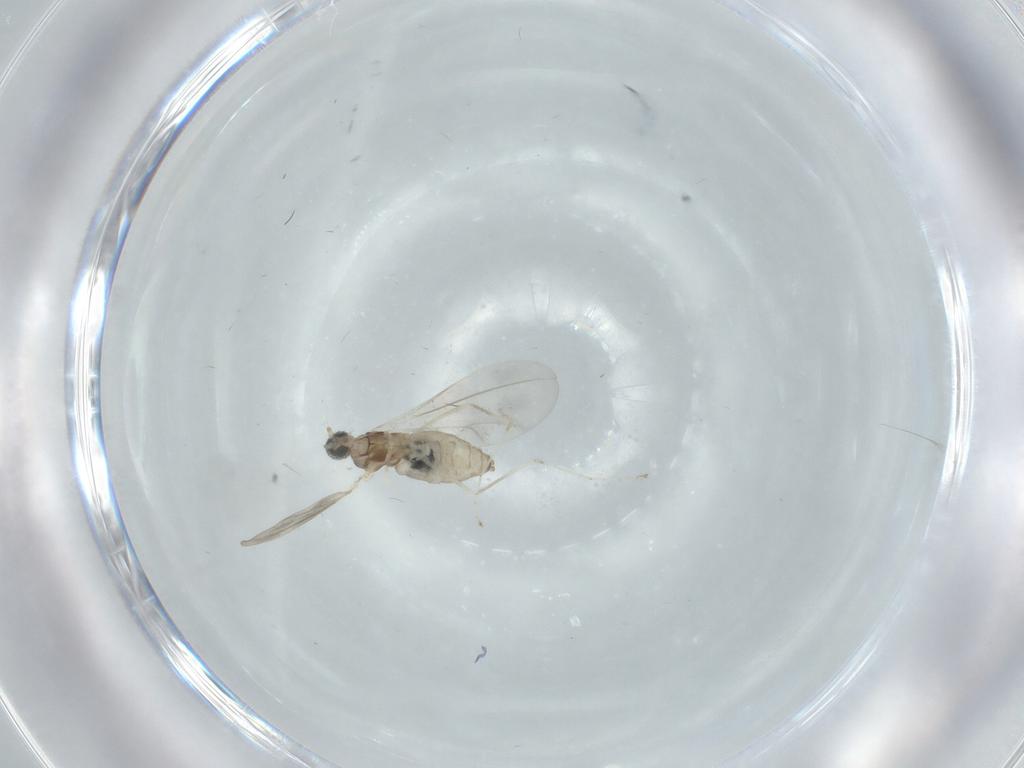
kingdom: Animalia
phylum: Arthropoda
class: Insecta
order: Diptera
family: Cecidomyiidae
